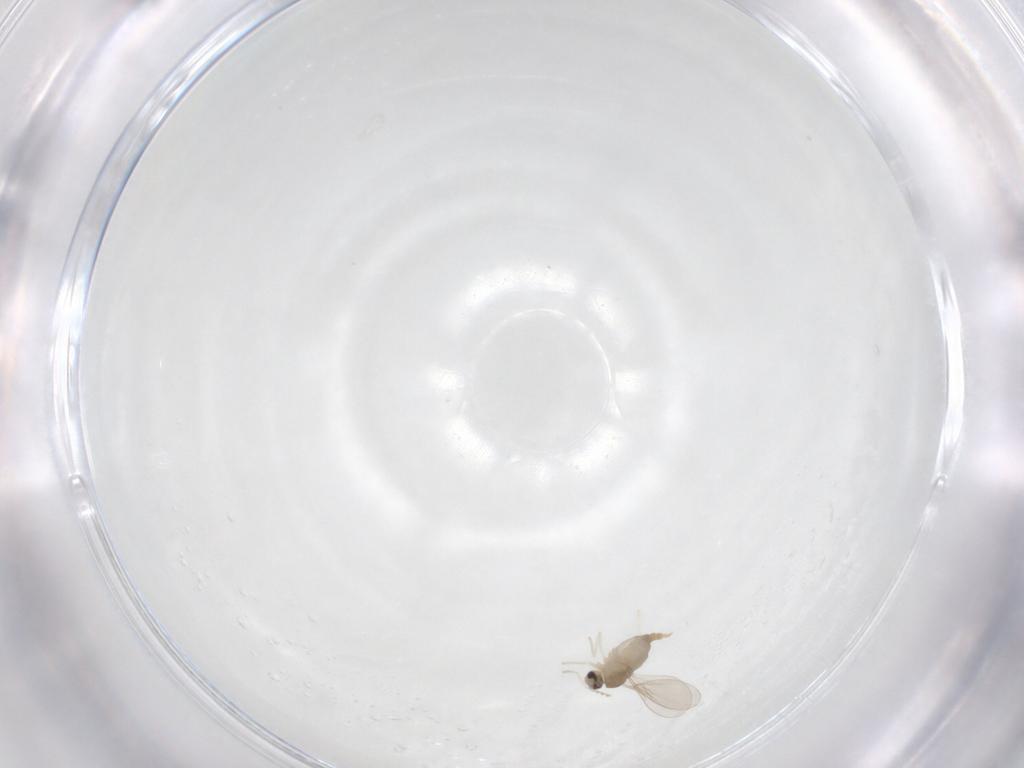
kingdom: Animalia
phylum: Arthropoda
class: Insecta
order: Diptera
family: Cecidomyiidae
